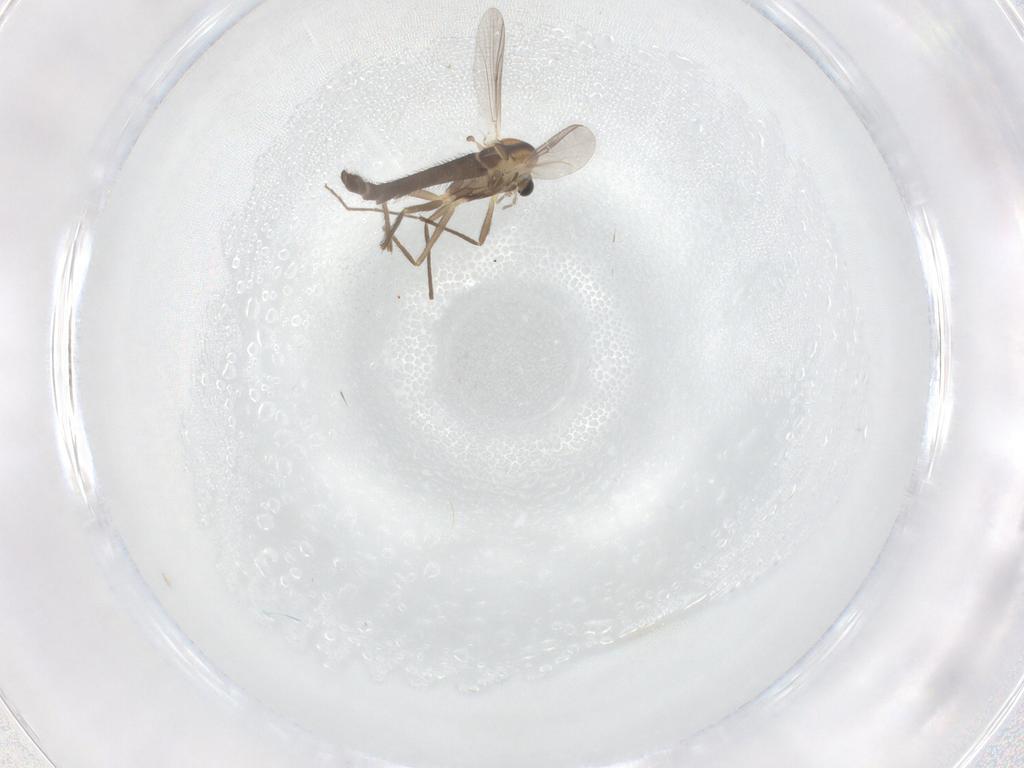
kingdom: Animalia
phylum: Arthropoda
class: Insecta
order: Diptera
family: Chironomidae
